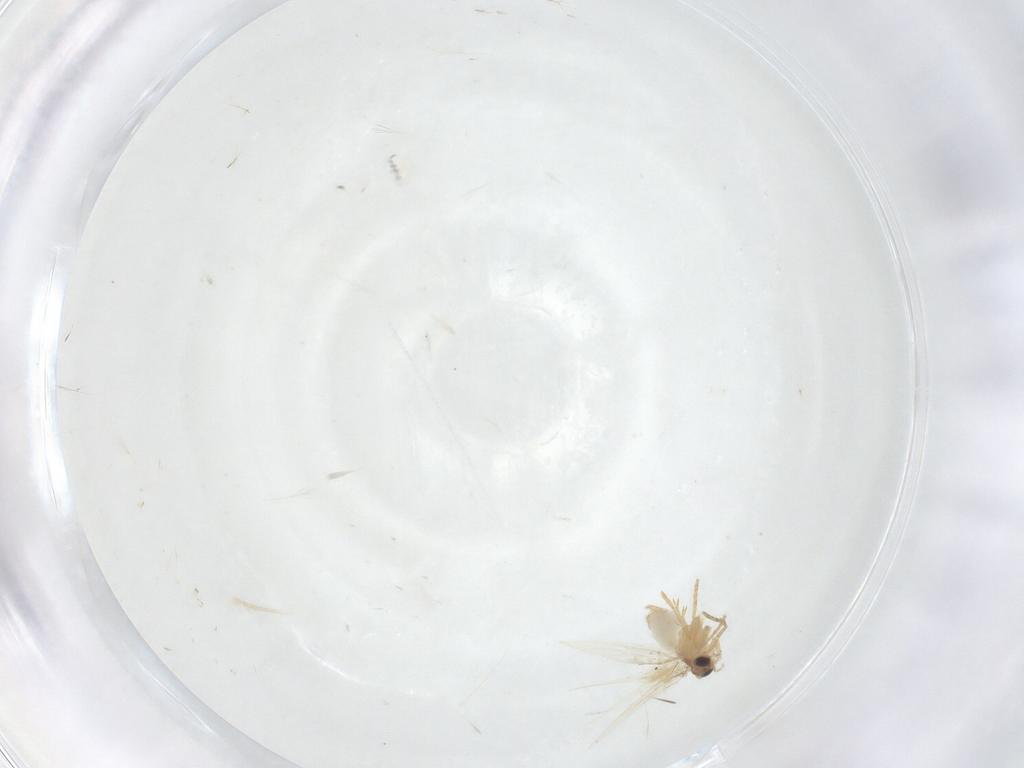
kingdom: Animalia
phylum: Arthropoda
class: Insecta
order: Lepidoptera
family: Nepticulidae
